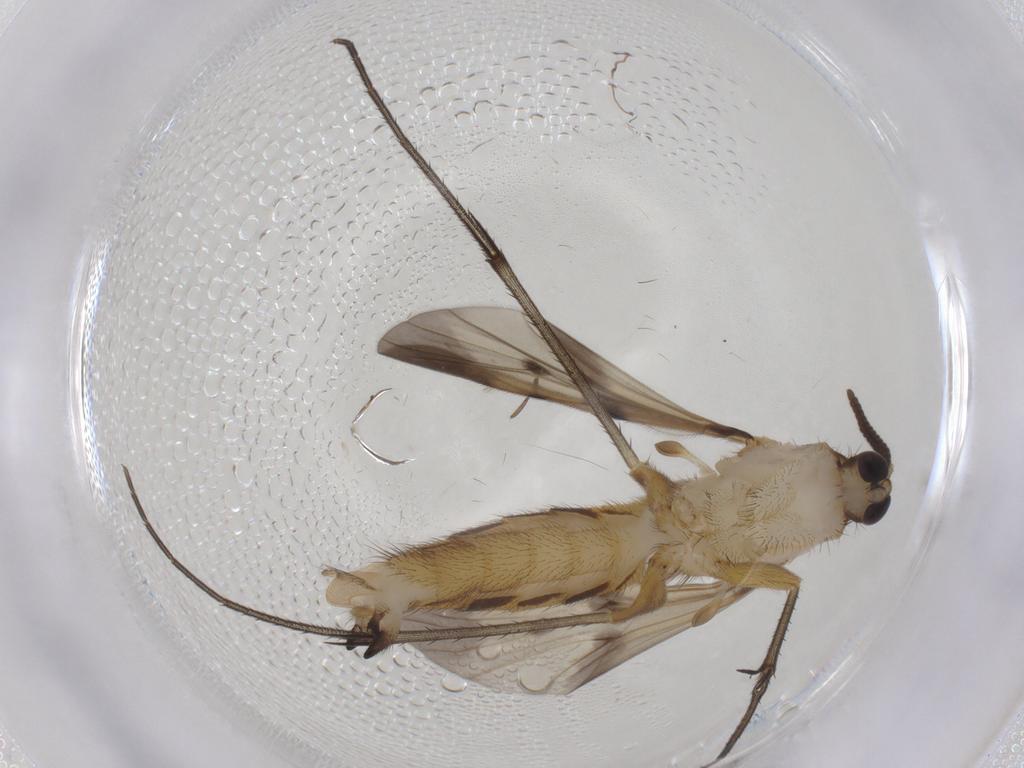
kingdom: Animalia
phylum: Arthropoda
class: Insecta
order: Diptera
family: Mycetophilidae
